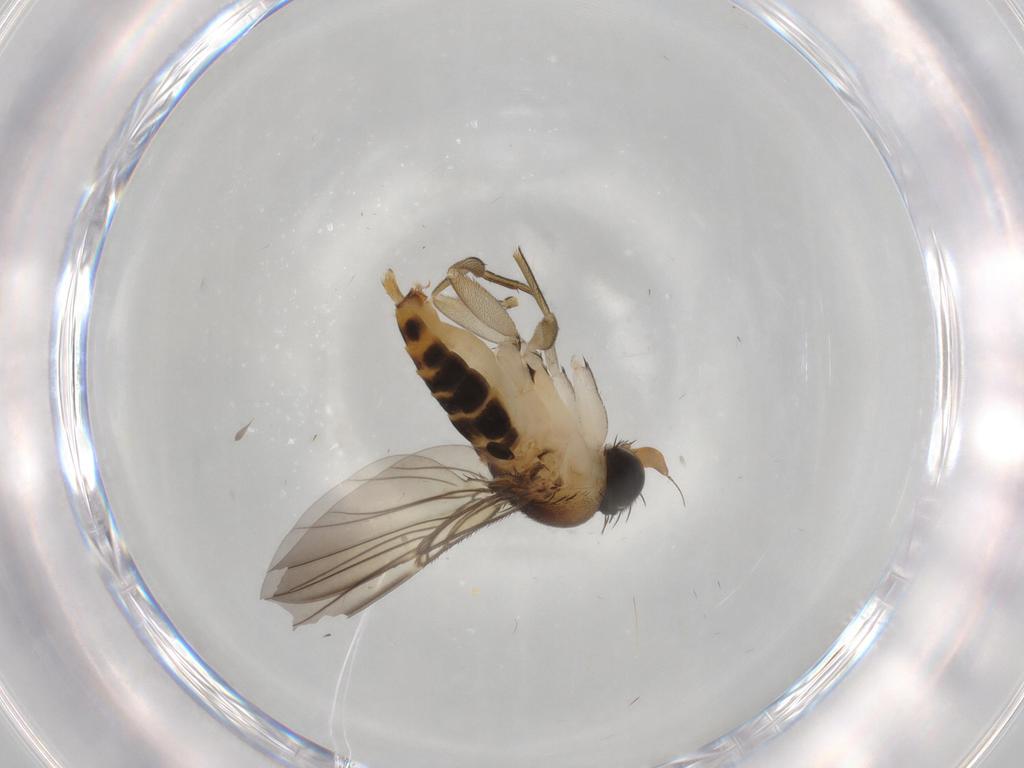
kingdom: Animalia
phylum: Arthropoda
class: Insecta
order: Diptera
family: Phoridae
